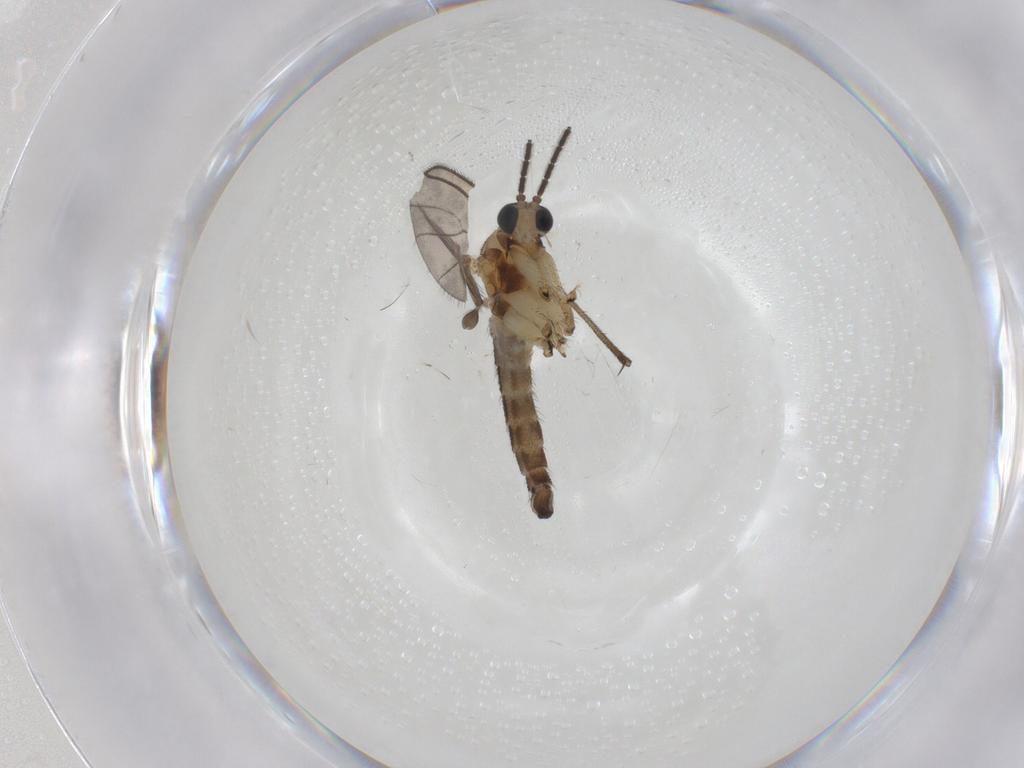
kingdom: Animalia
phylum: Arthropoda
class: Insecta
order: Diptera
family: Sciaridae
